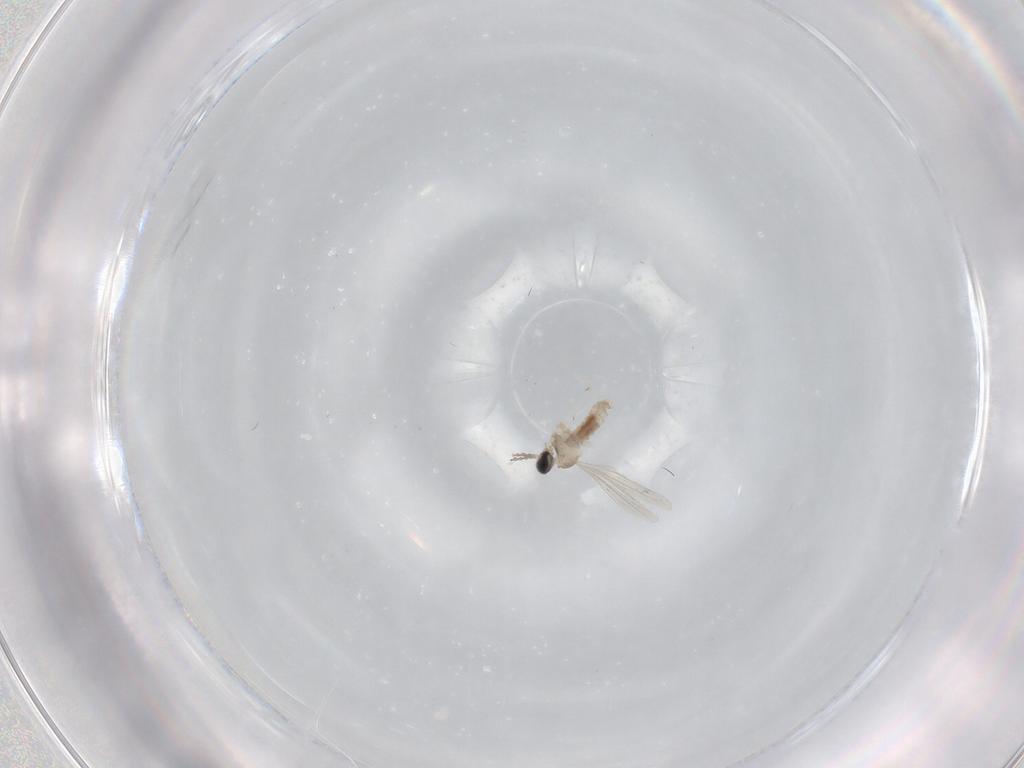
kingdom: Animalia
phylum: Arthropoda
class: Insecta
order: Diptera
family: Cecidomyiidae
